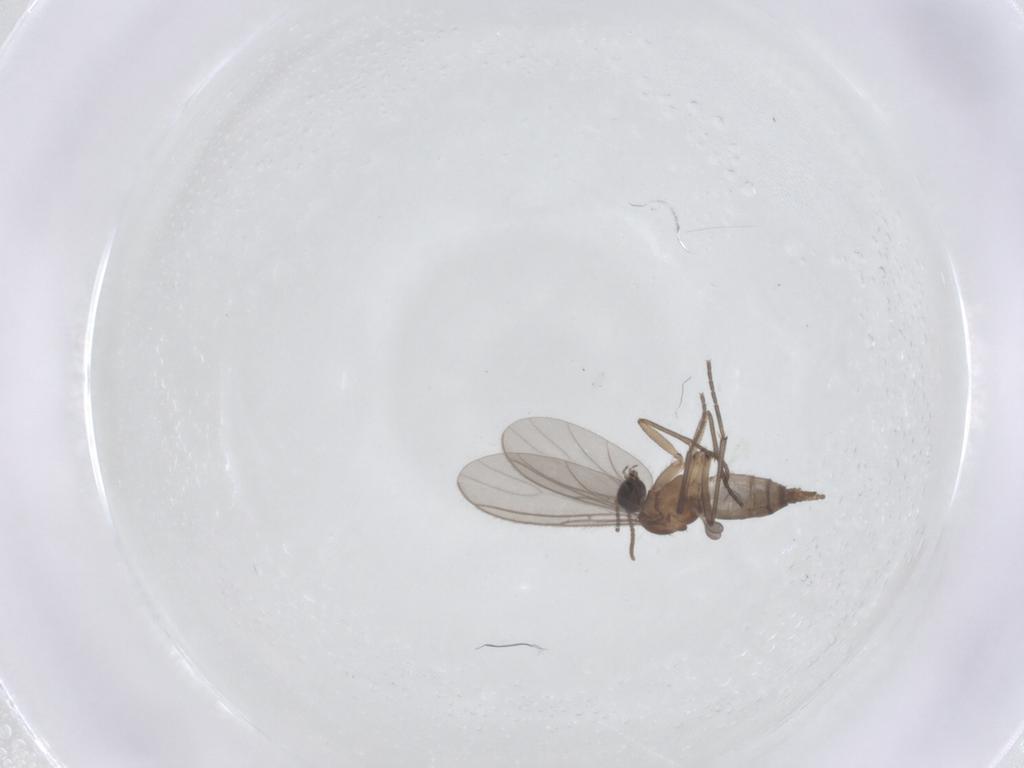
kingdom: Animalia
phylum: Arthropoda
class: Insecta
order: Diptera
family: Sciaridae
